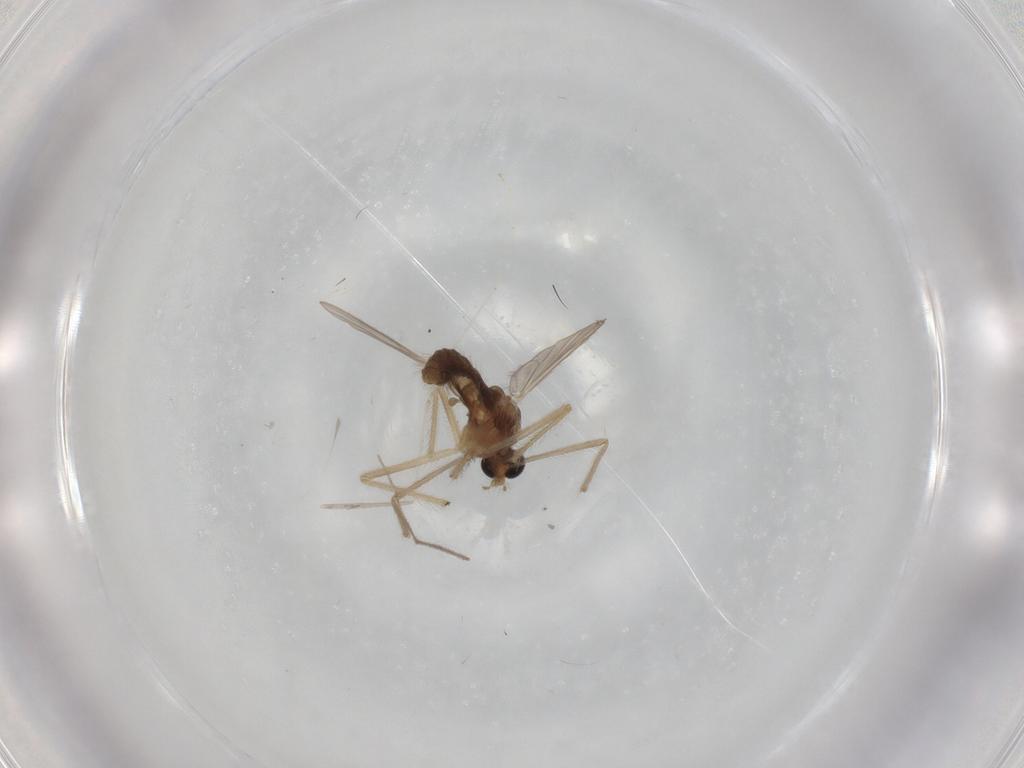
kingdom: Animalia
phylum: Arthropoda
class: Insecta
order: Diptera
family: Chironomidae
